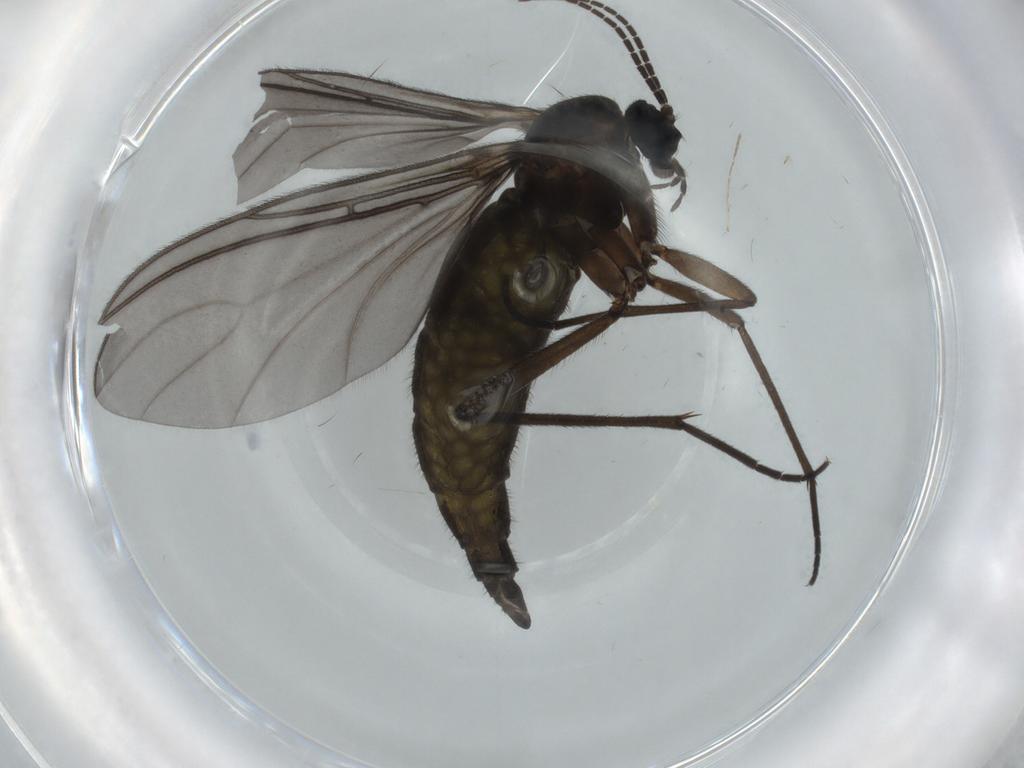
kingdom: Animalia
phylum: Arthropoda
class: Insecta
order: Diptera
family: Sciaridae
